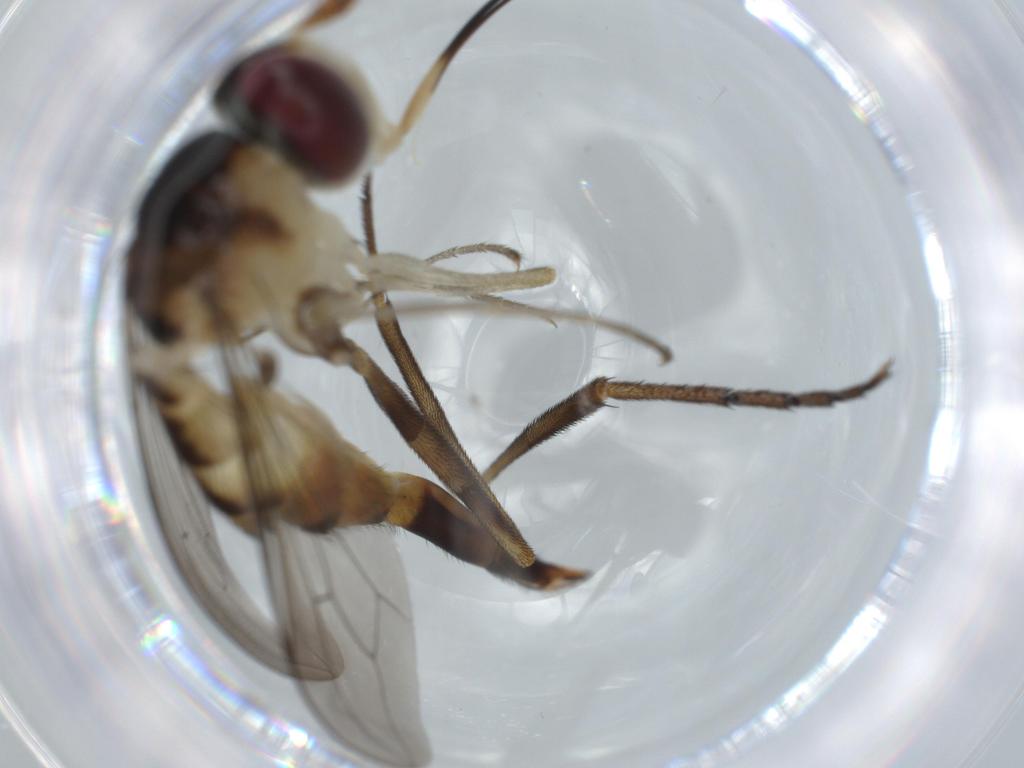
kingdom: Animalia
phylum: Arthropoda
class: Insecta
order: Diptera
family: Conopidae
